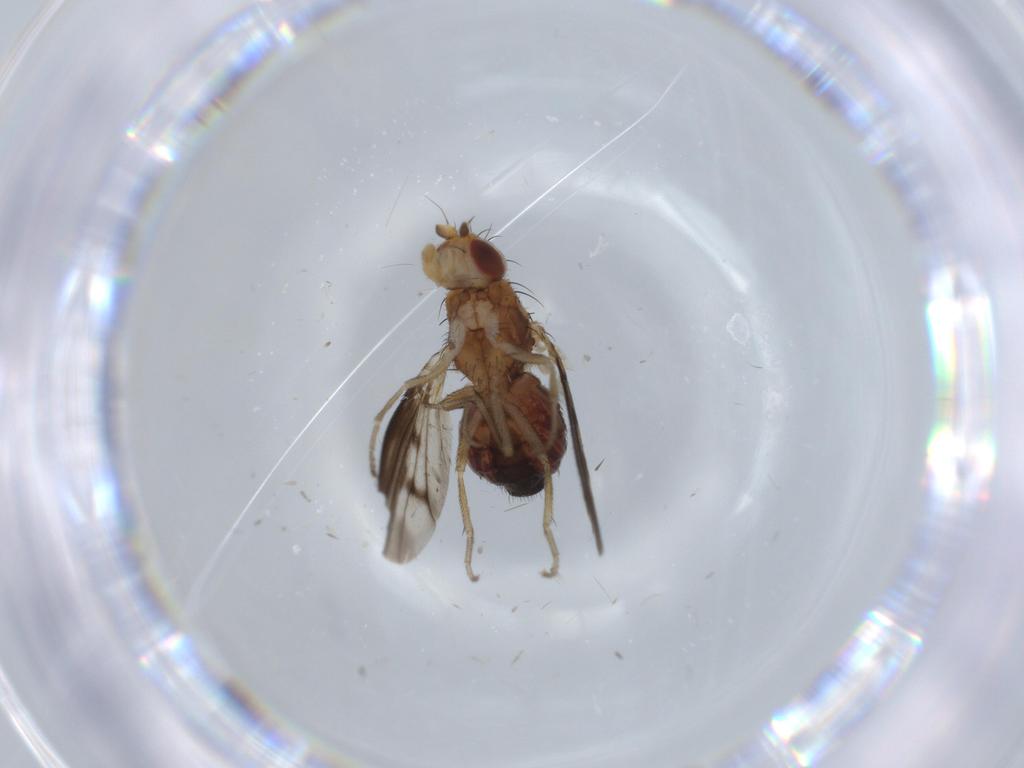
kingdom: Animalia
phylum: Arthropoda
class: Insecta
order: Diptera
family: Heleomyzidae
